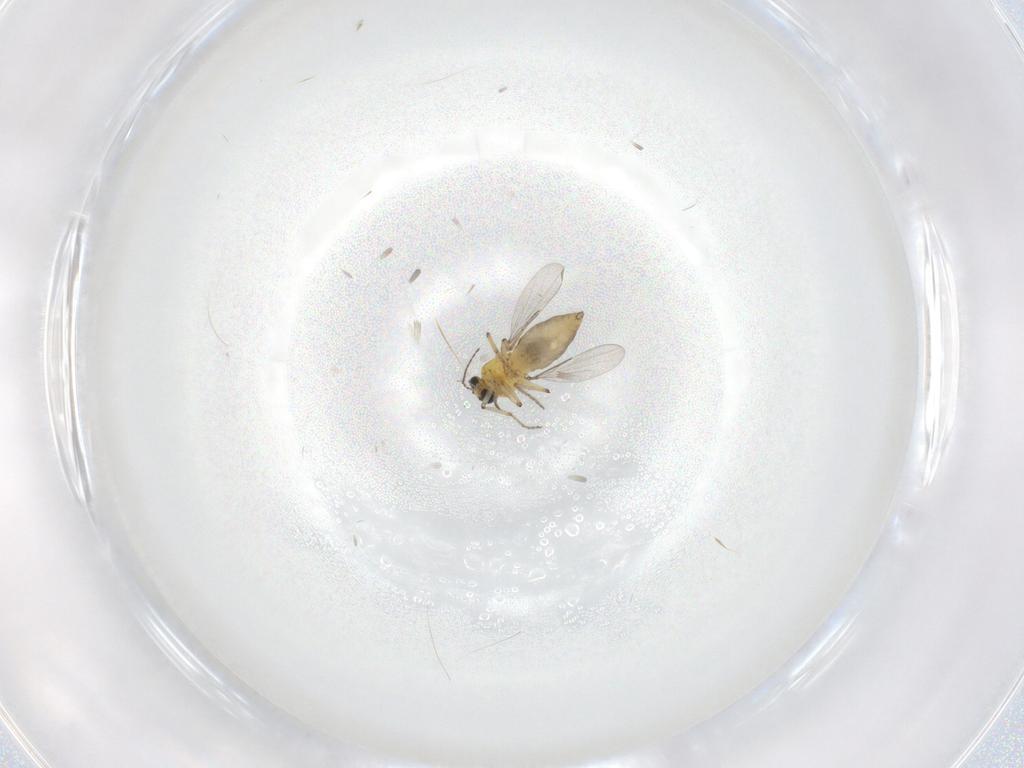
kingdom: Animalia
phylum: Arthropoda
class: Insecta
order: Diptera
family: Ceratopogonidae
